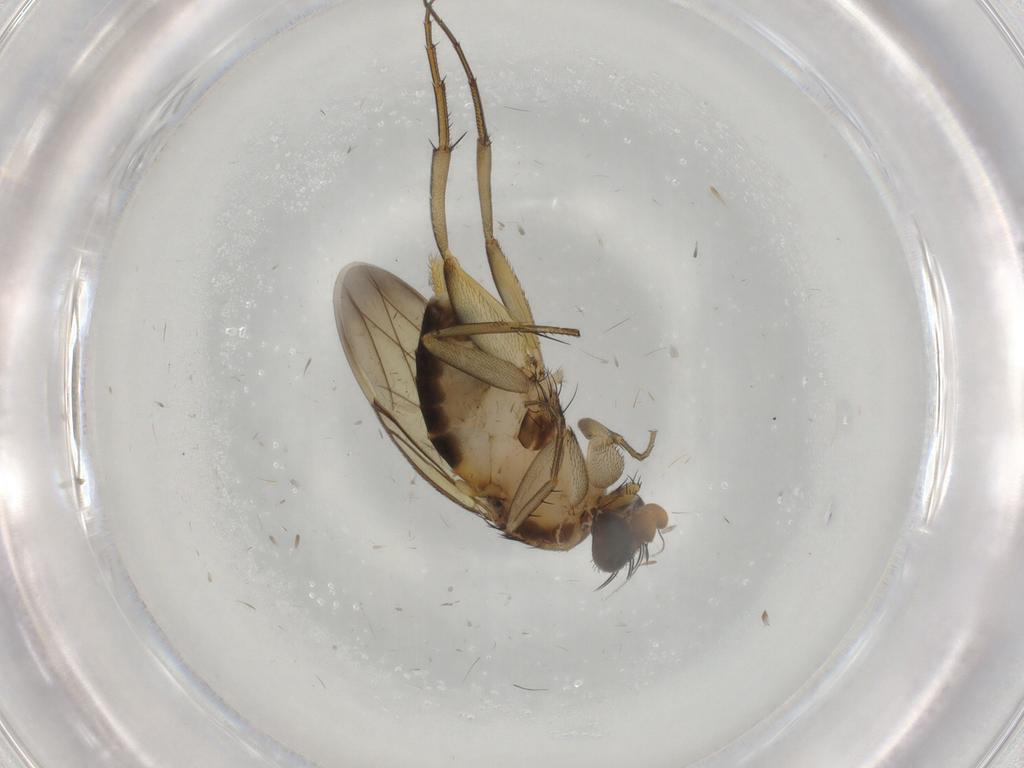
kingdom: Animalia
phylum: Arthropoda
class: Insecta
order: Diptera
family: Phoridae
